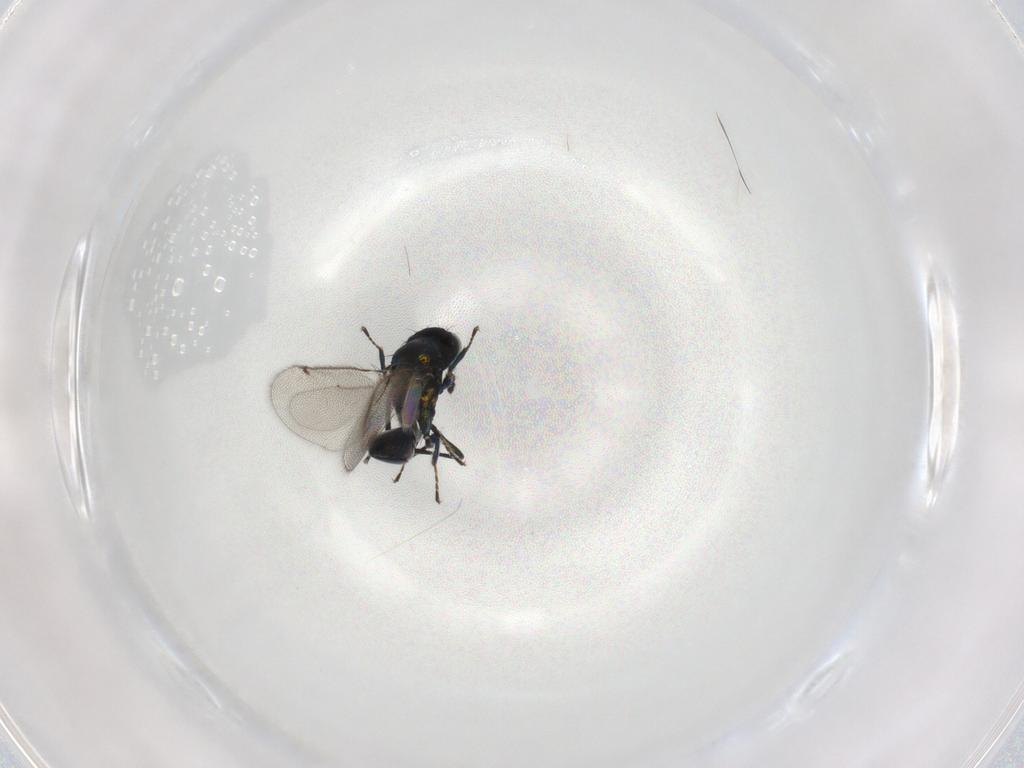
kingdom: Animalia
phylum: Arthropoda
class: Insecta
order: Hymenoptera
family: Eulophidae
